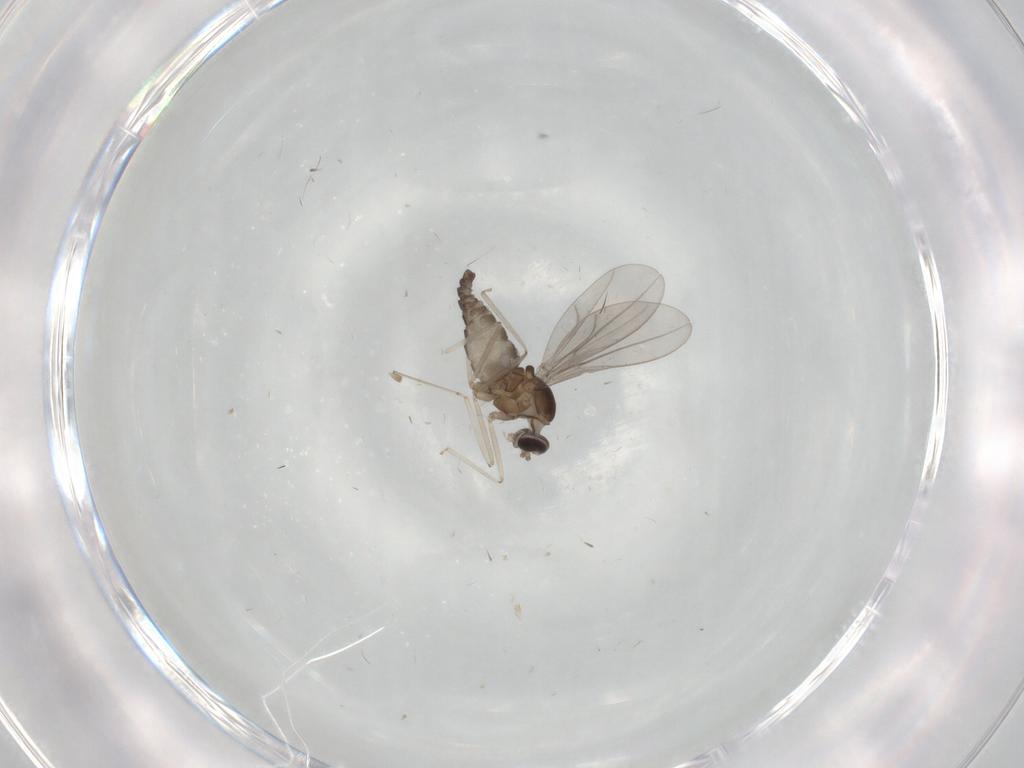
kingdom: Animalia
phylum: Arthropoda
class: Insecta
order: Diptera
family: Cecidomyiidae
